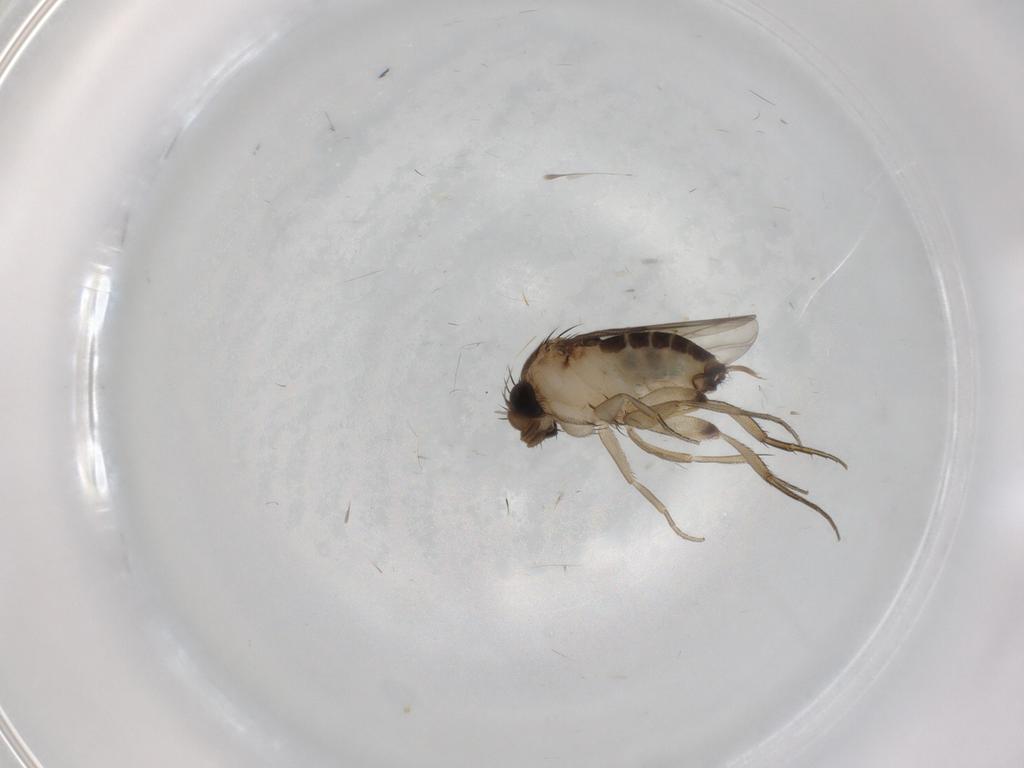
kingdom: Animalia
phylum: Arthropoda
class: Insecta
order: Diptera
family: Phoridae
